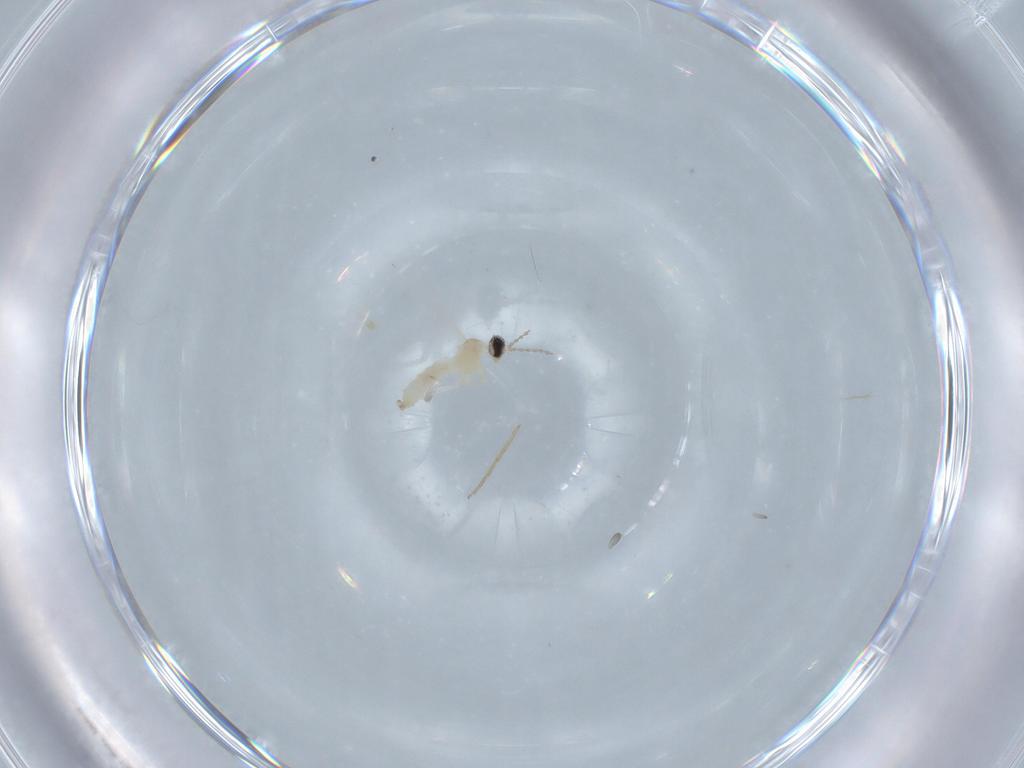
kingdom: Animalia
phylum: Arthropoda
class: Insecta
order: Diptera
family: Cecidomyiidae
